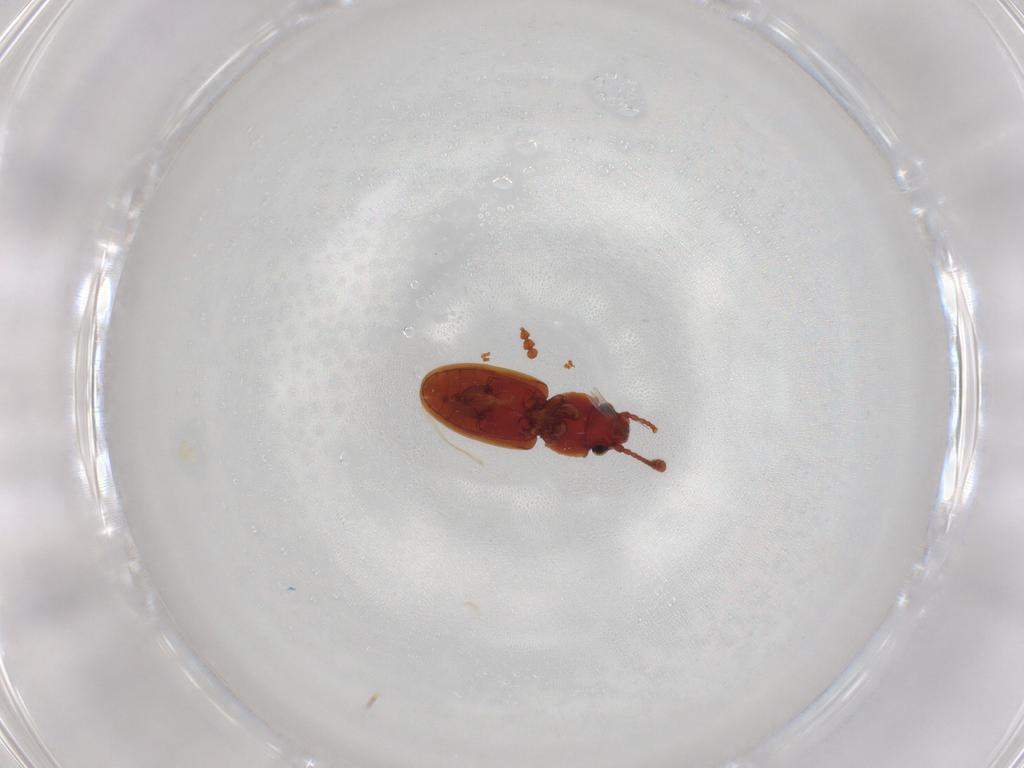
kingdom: Animalia
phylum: Arthropoda
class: Insecta
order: Coleoptera
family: Silvanidae
